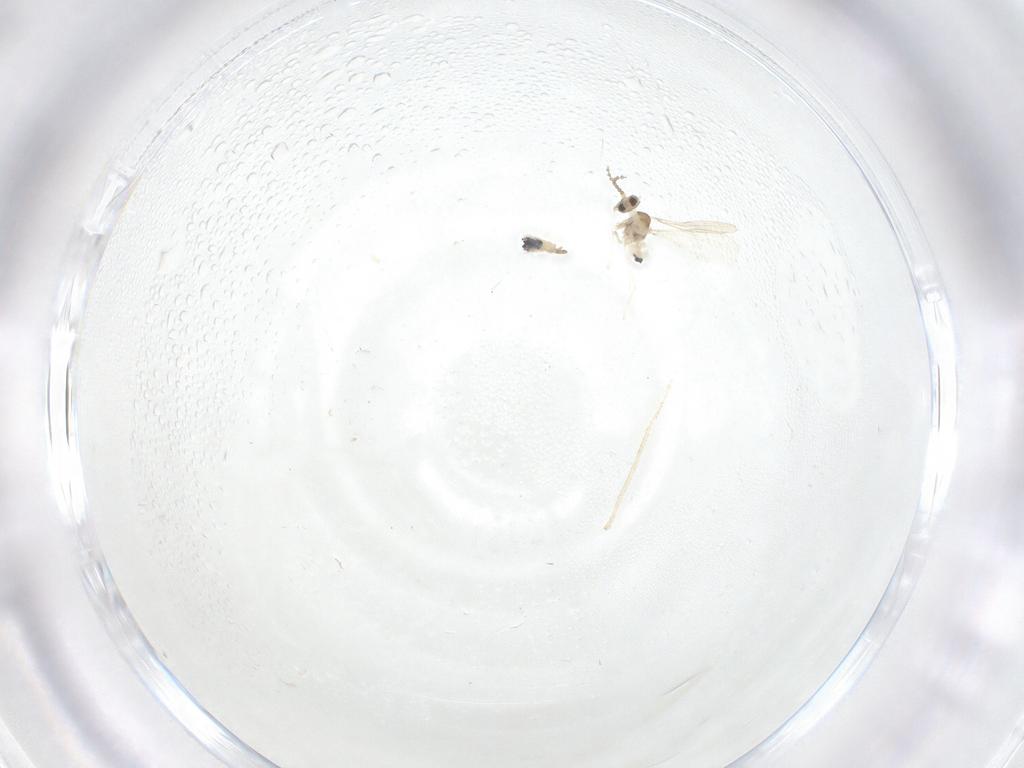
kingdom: Animalia
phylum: Arthropoda
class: Insecta
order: Diptera
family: Cecidomyiidae
